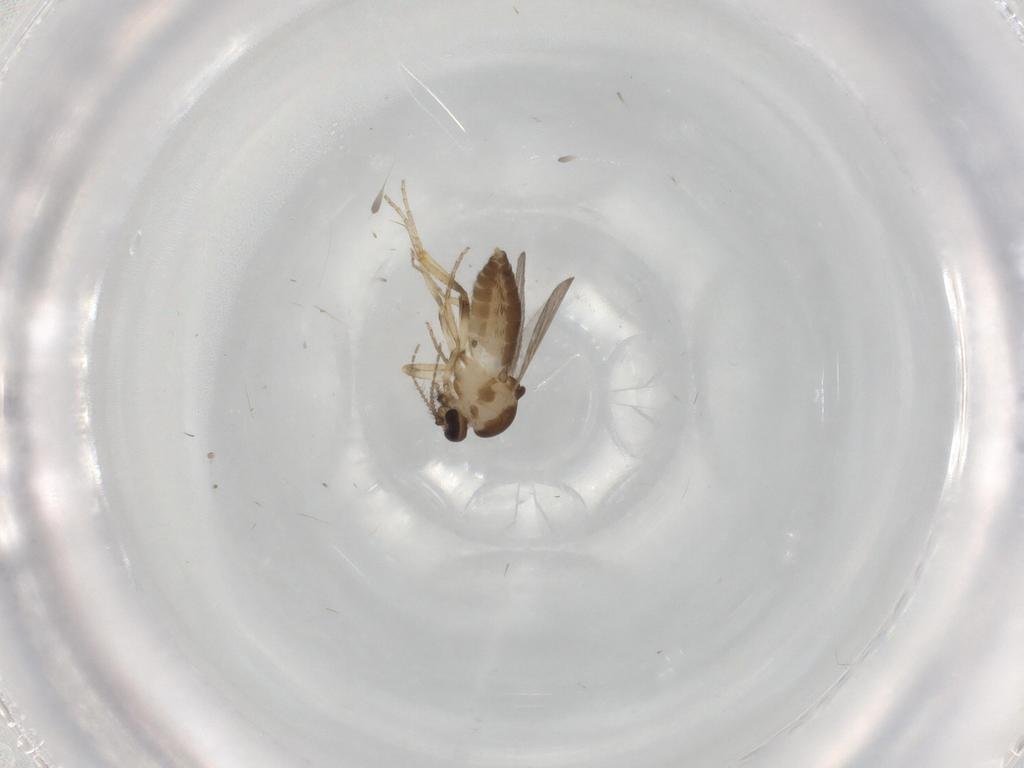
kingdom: Animalia
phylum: Arthropoda
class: Insecta
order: Diptera
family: Ceratopogonidae
